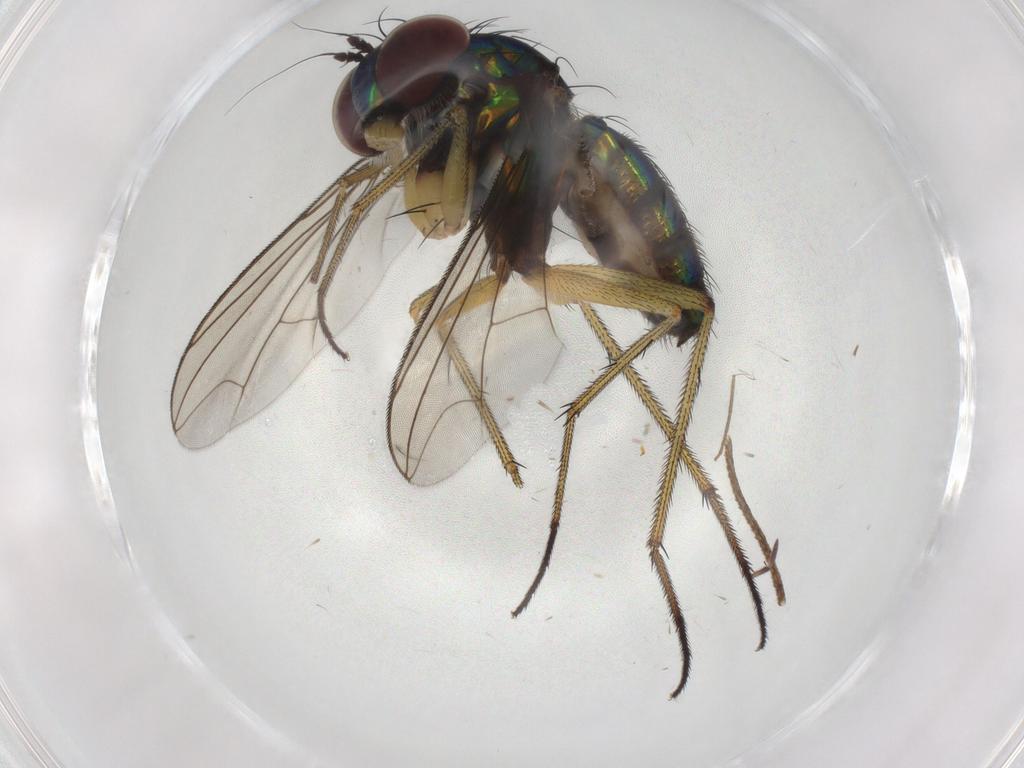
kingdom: Animalia
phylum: Arthropoda
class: Insecta
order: Diptera
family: Dolichopodidae
